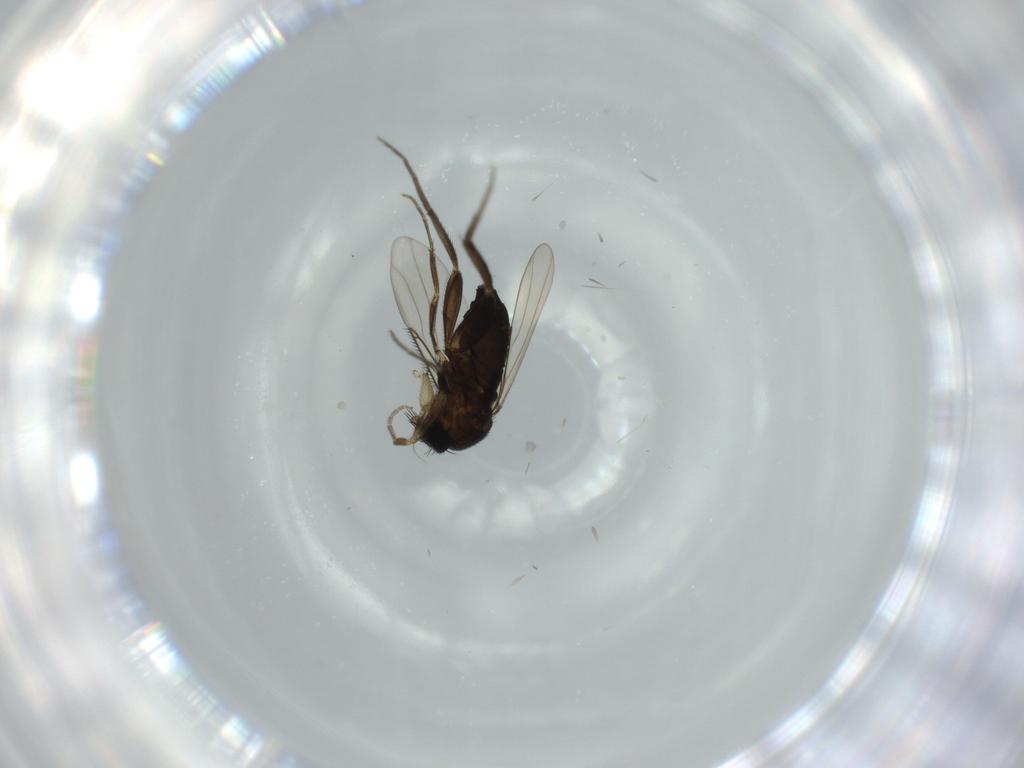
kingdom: Animalia
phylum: Arthropoda
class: Insecta
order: Diptera
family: Phoridae
